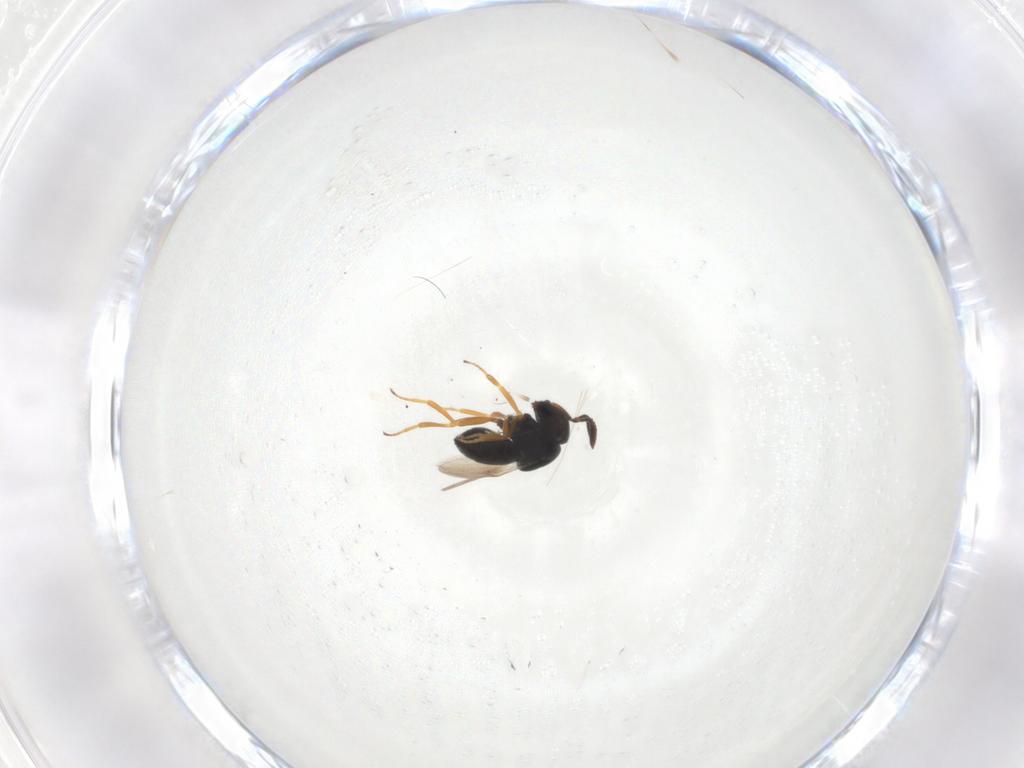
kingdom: Animalia
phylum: Arthropoda
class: Insecta
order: Hymenoptera
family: Scelionidae
